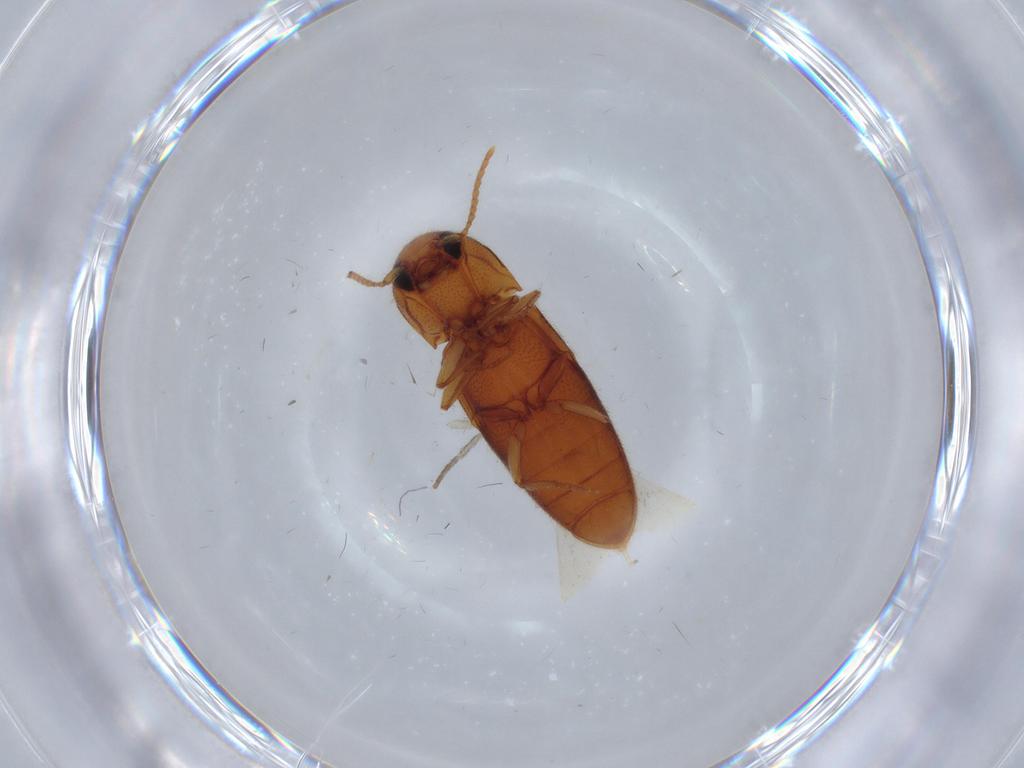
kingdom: Animalia
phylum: Arthropoda
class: Insecta
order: Coleoptera
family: Elateridae
